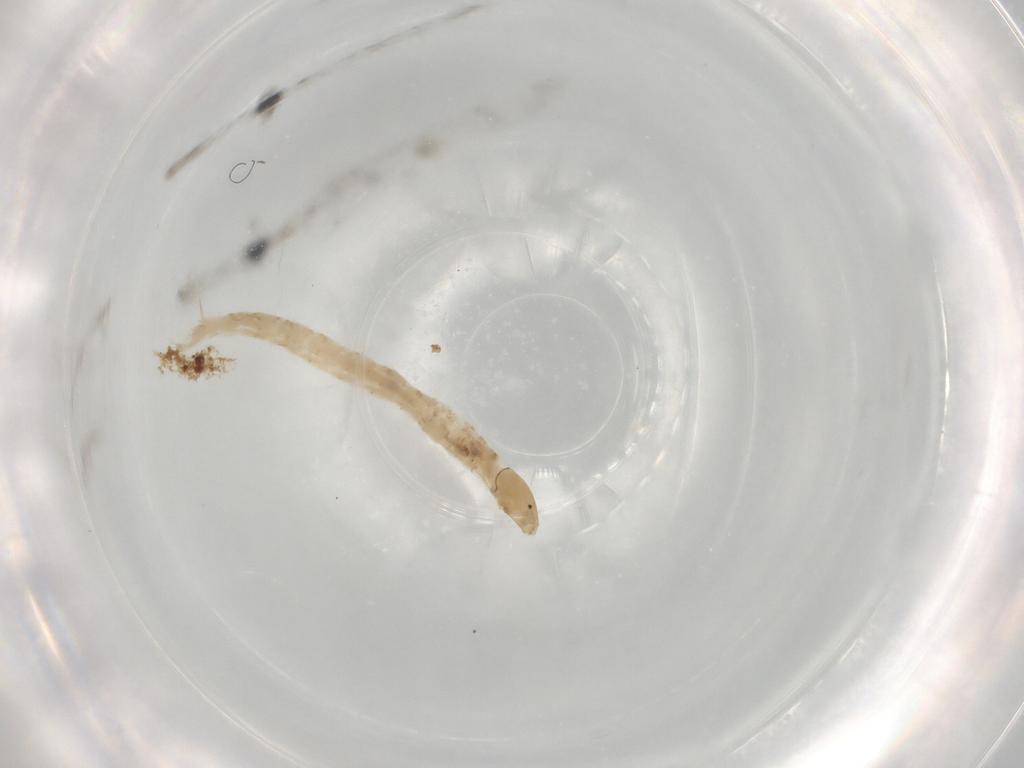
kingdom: Animalia
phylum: Arthropoda
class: Insecta
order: Diptera
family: Chironomidae
